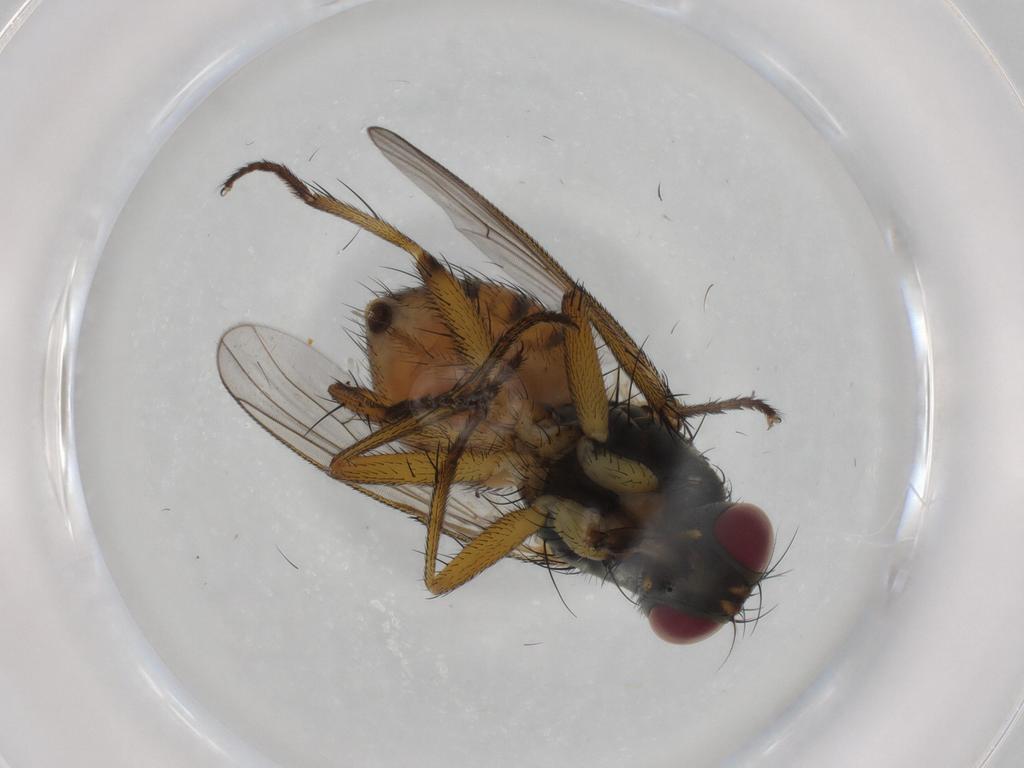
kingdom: Animalia
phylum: Arthropoda
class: Insecta
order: Diptera
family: Muscidae
